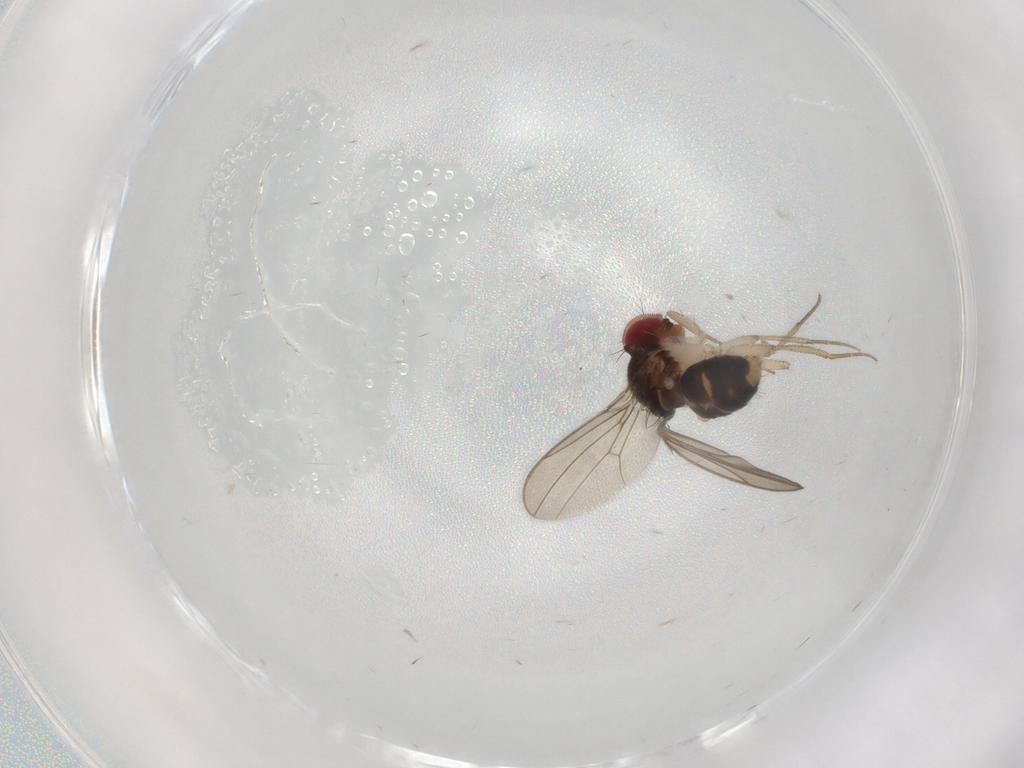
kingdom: Animalia
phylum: Arthropoda
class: Insecta
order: Diptera
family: Drosophilidae
